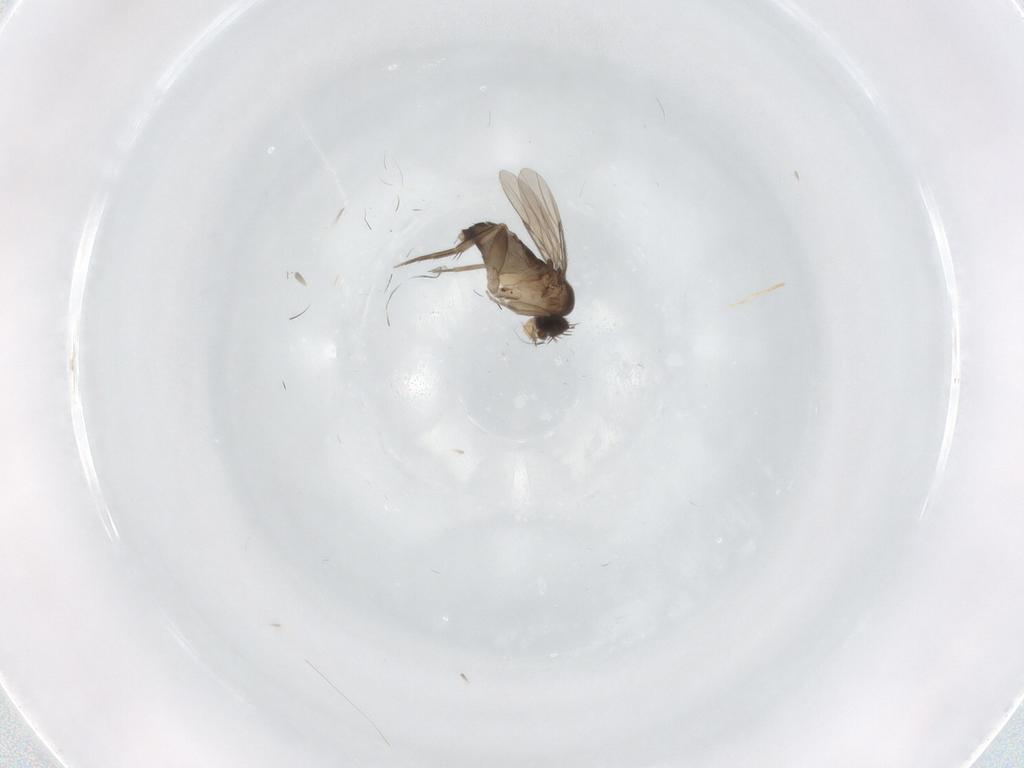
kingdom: Animalia
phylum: Arthropoda
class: Insecta
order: Diptera
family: Phoridae
